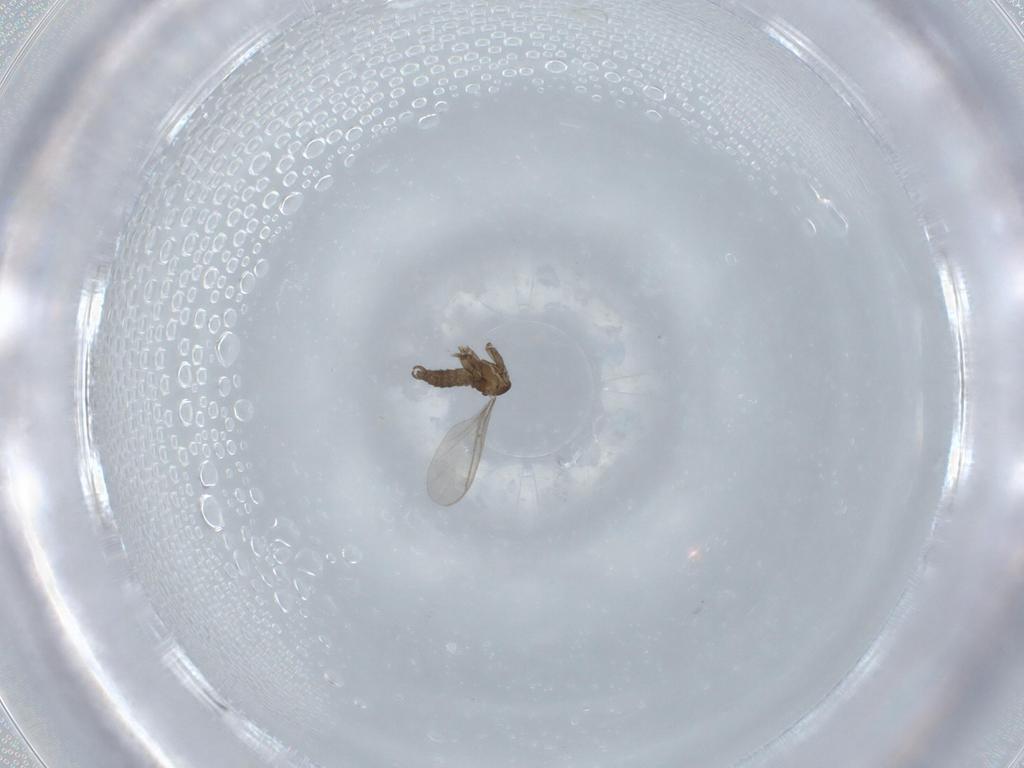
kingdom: Animalia
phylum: Arthropoda
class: Insecta
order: Diptera
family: Sciaridae
